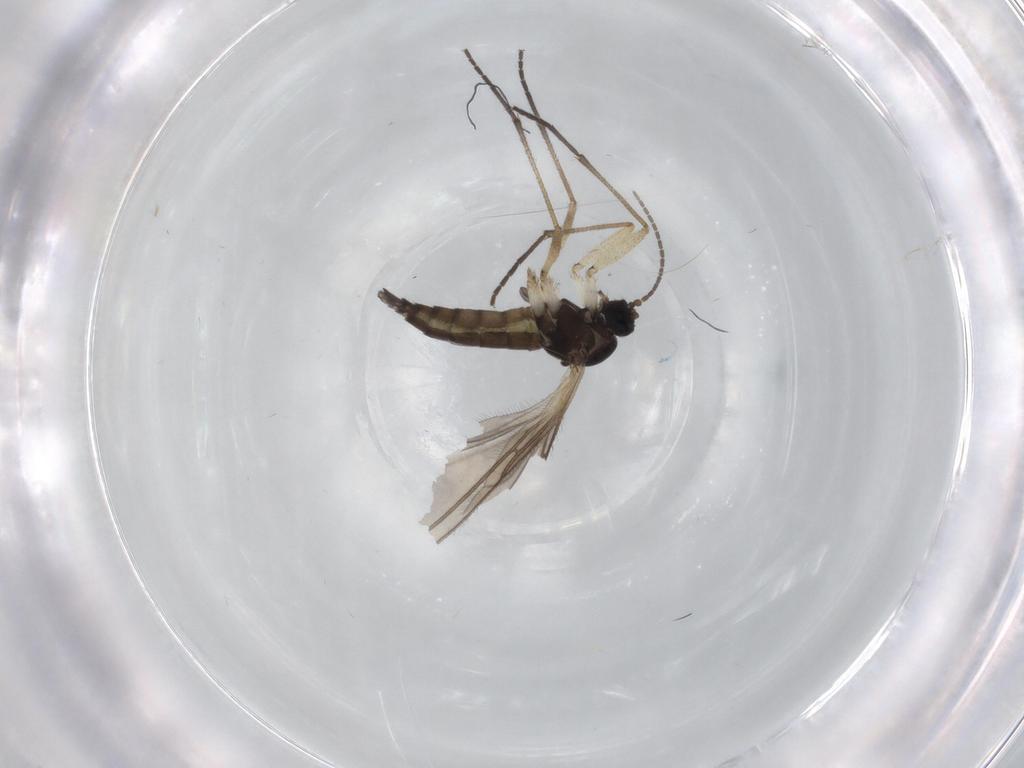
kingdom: Animalia
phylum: Arthropoda
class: Insecta
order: Diptera
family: Sciaridae
